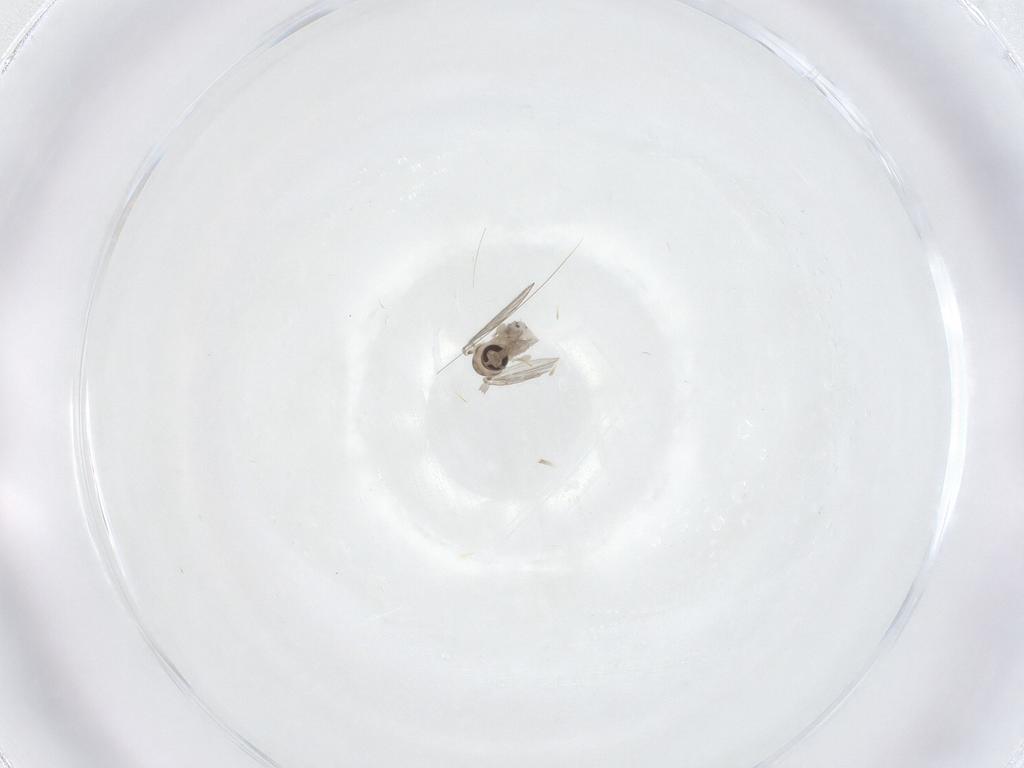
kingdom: Animalia
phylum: Arthropoda
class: Insecta
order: Diptera
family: Psychodidae
